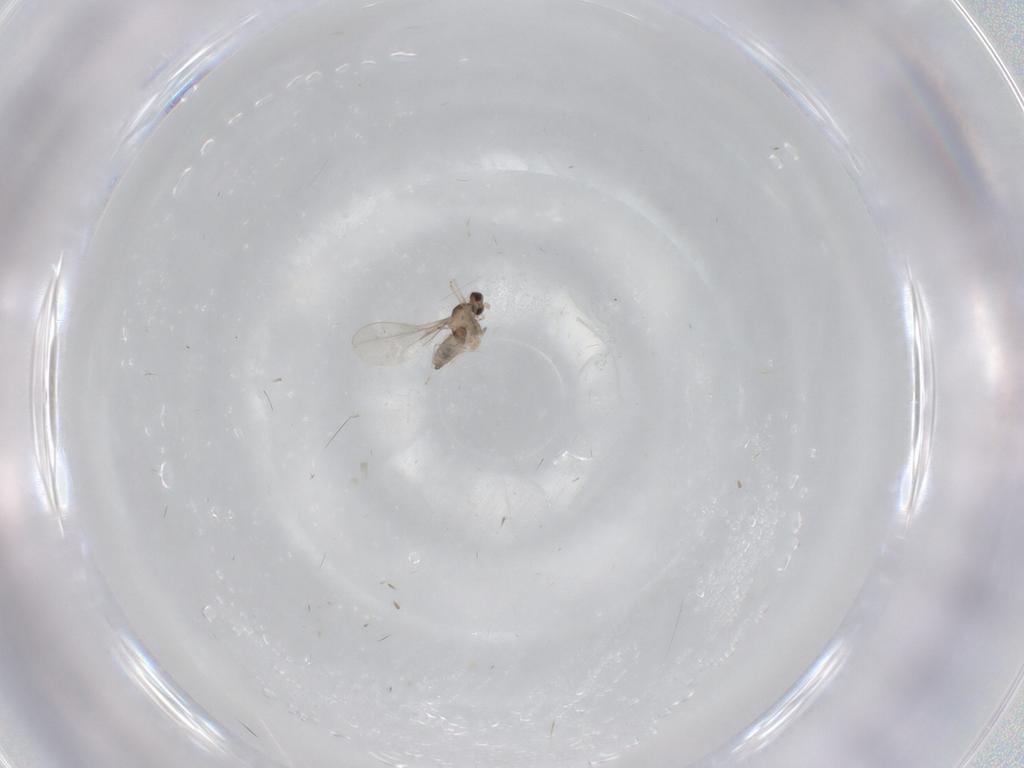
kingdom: Animalia
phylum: Arthropoda
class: Insecta
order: Diptera
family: Cecidomyiidae
